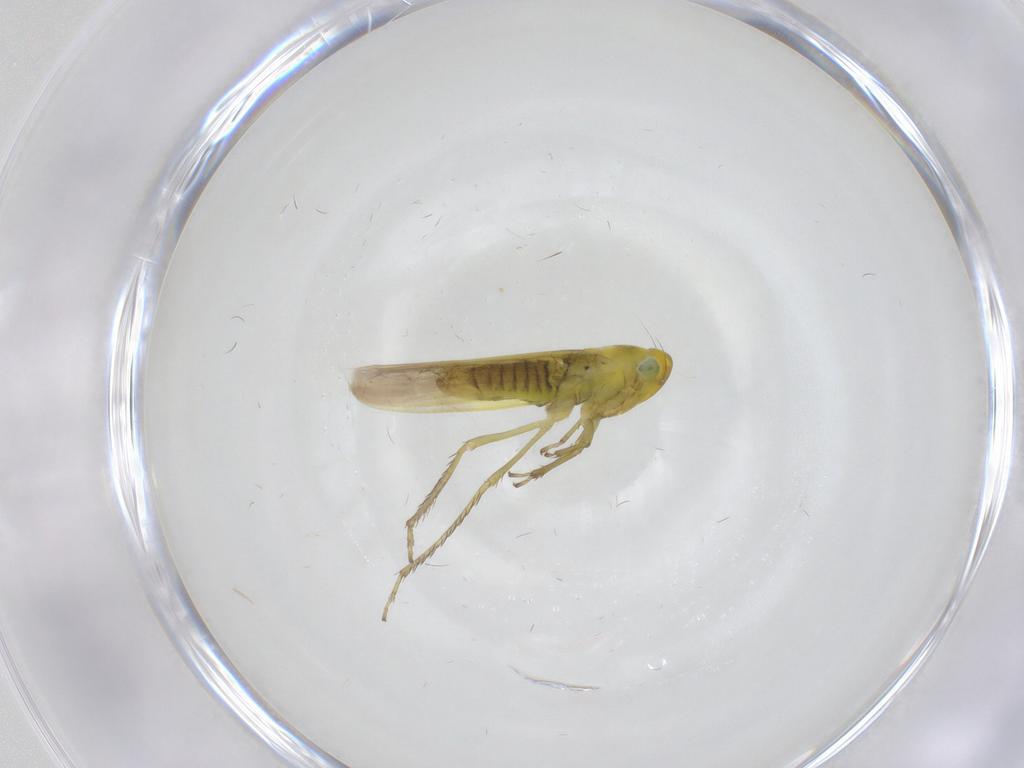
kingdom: Animalia
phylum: Arthropoda
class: Insecta
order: Hemiptera
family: Cicadellidae
